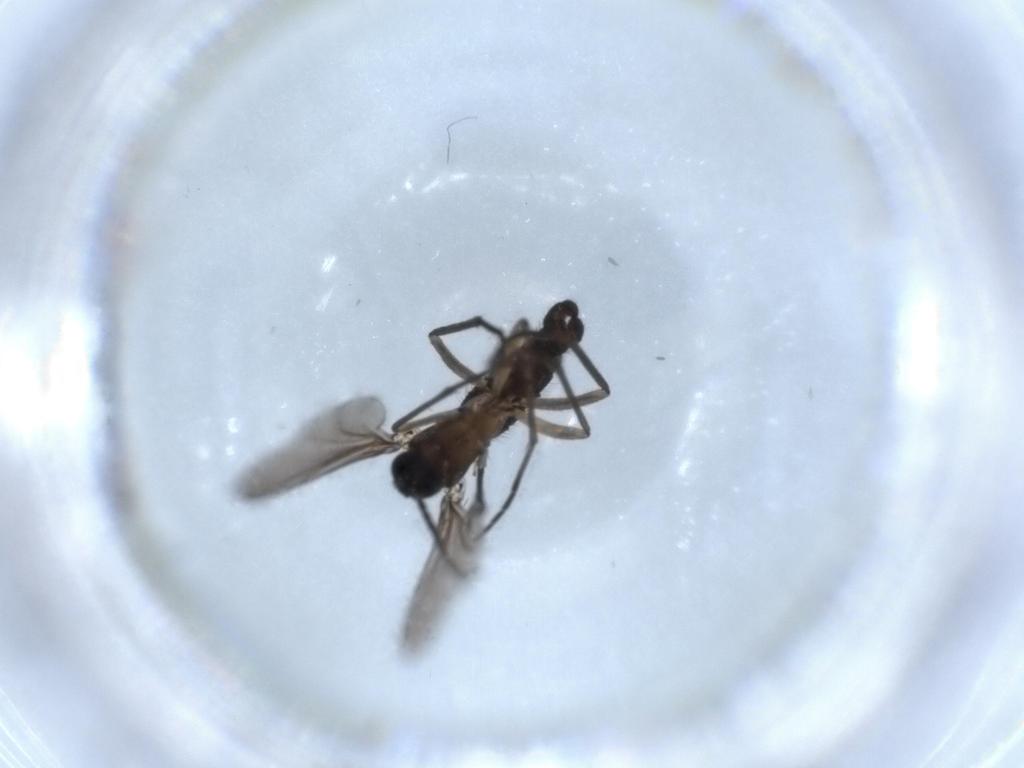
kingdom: Animalia
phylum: Arthropoda
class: Insecta
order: Diptera
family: Sciaridae
